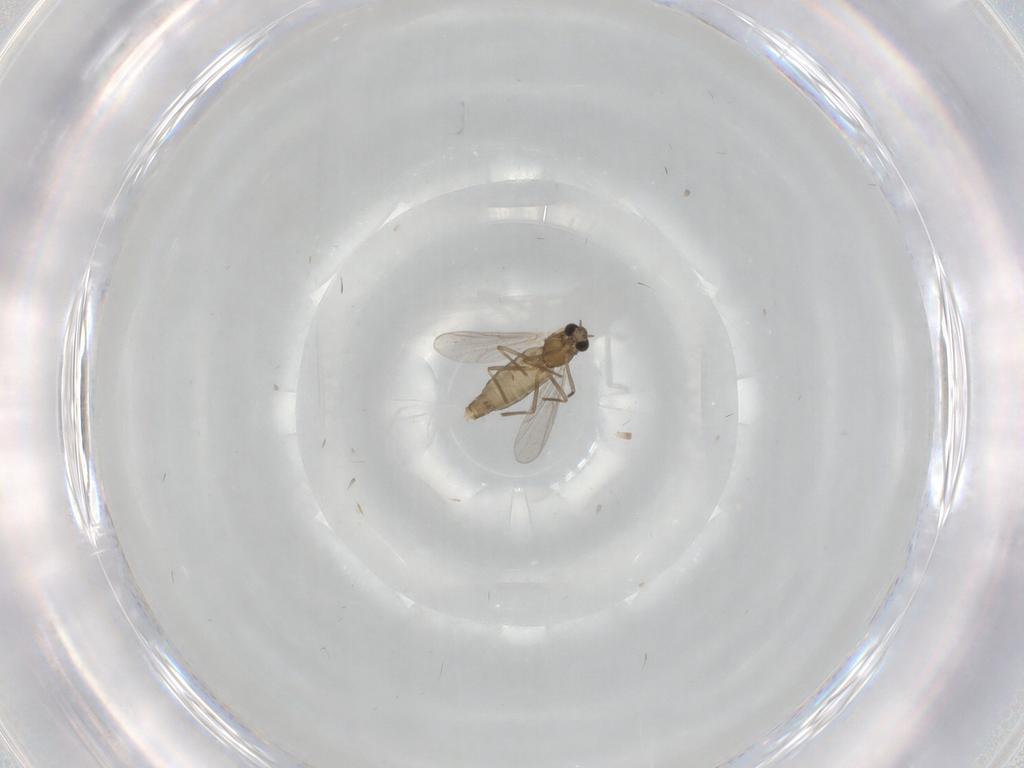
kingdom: Animalia
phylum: Arthropoda
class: Insecta
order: Diptera
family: Chironomidae
